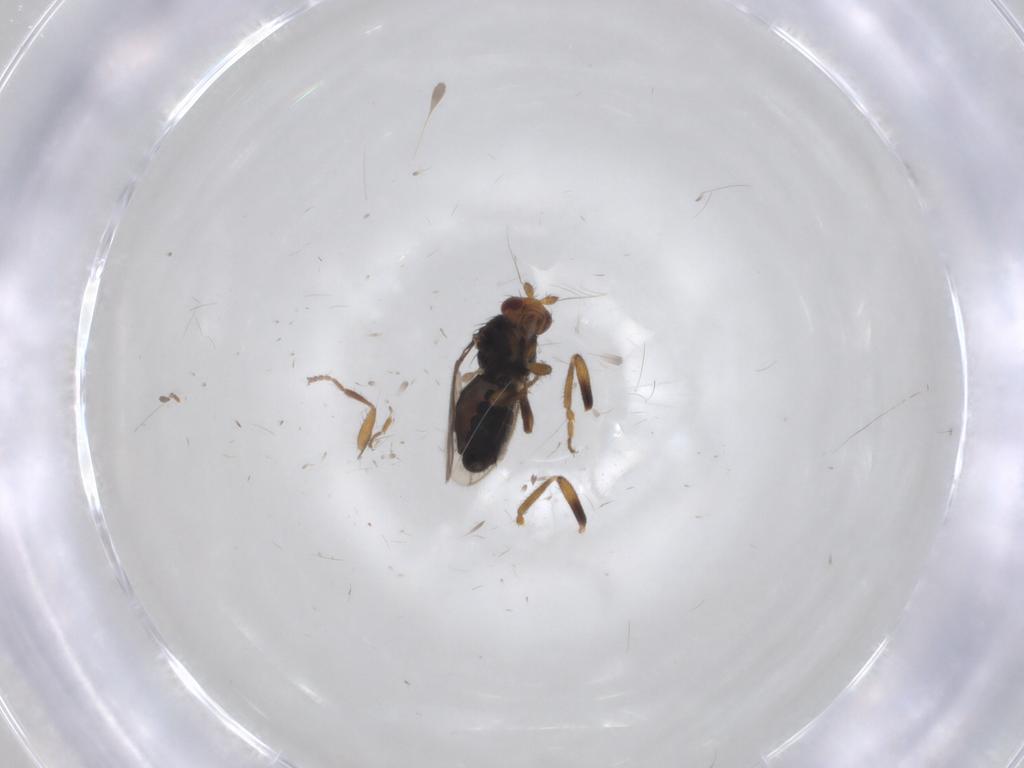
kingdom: Animalia
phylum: Arthropoda
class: Insecta
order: Diptera
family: Sphaeroceridae
